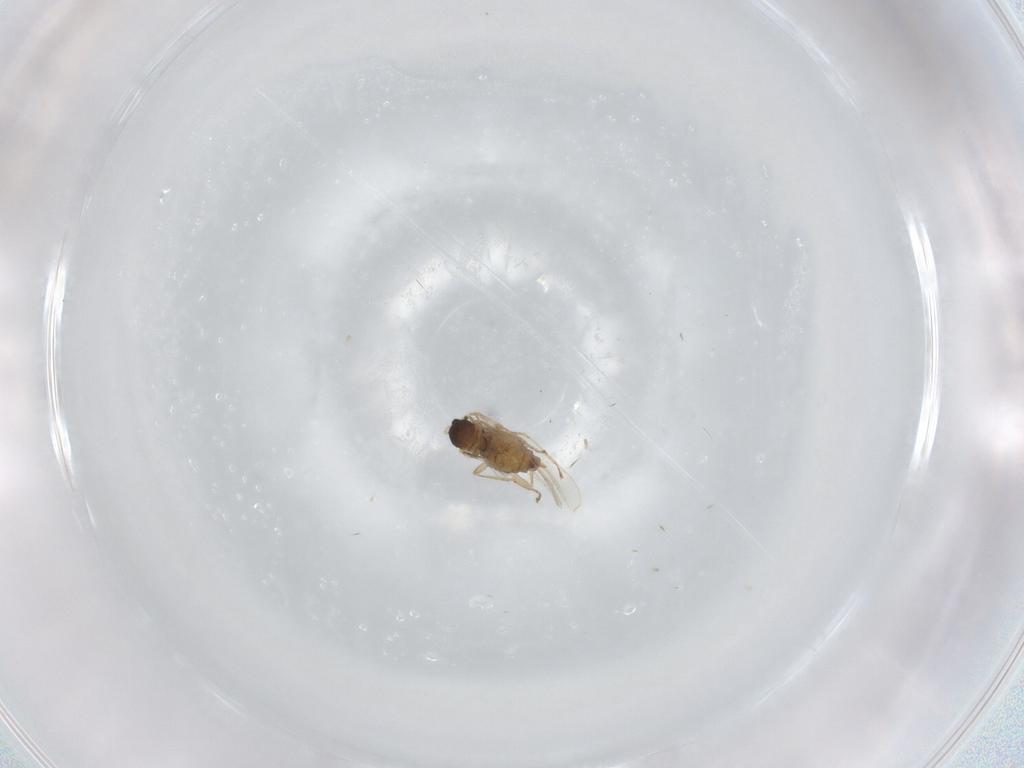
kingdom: Animalia
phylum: Arthropoda
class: Insecta
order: Diptera
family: Cecidomyiidae
